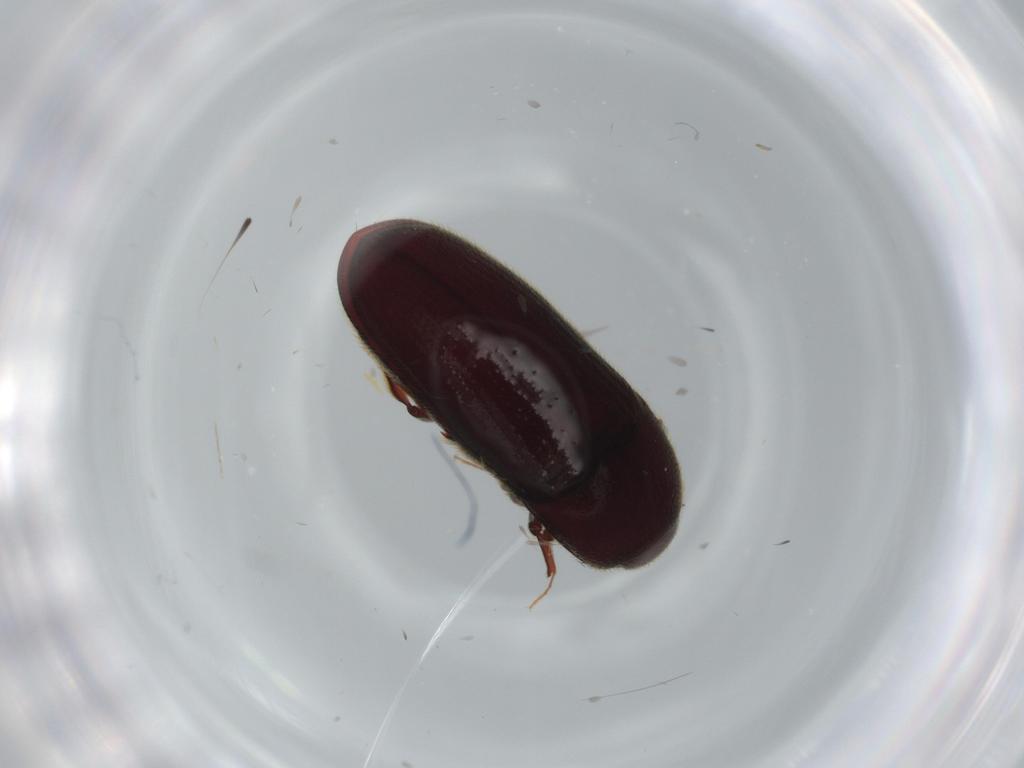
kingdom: Animalia
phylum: Arthropoda
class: Insecta
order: Coleoptera
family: Throscidae
